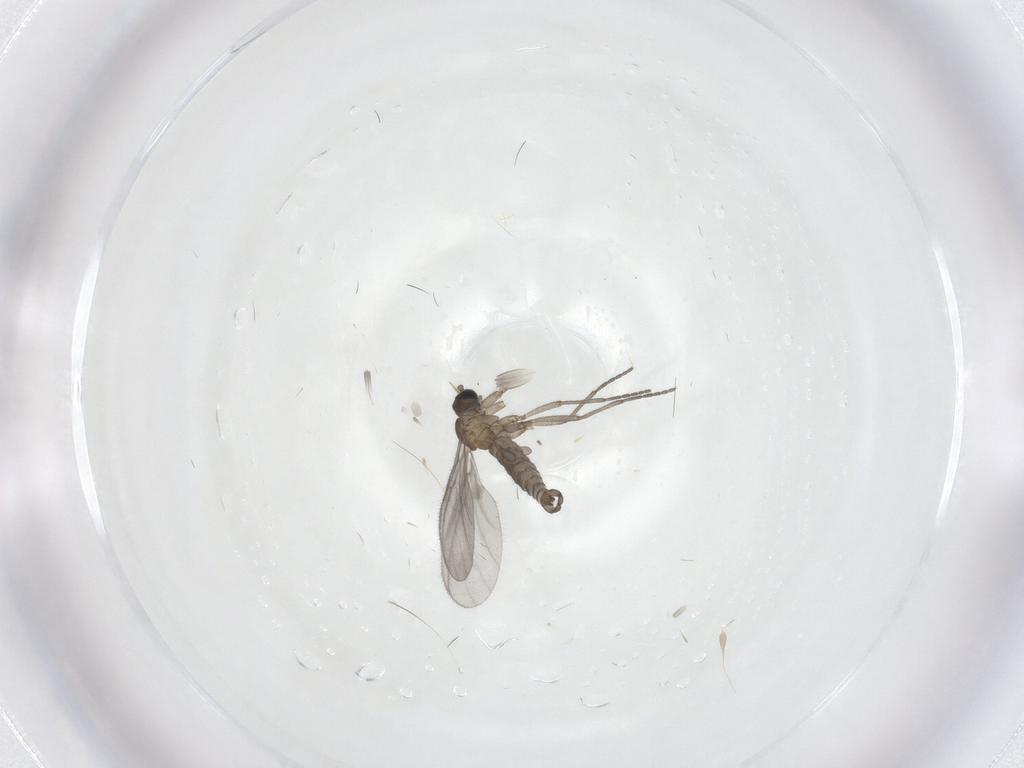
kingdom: Animalia
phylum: Arthropoda
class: Insecta
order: Diptera
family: Sciaridae
